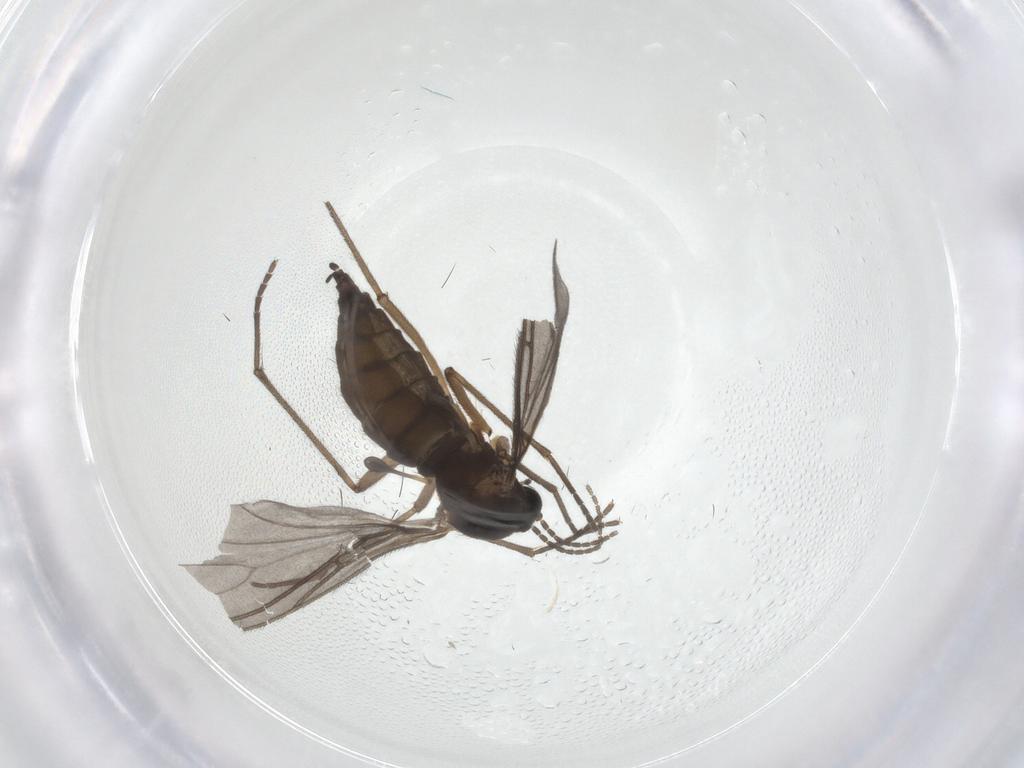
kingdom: Animalia
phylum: Arthropoda
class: Insecta
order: Diptera
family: Sciaridae
